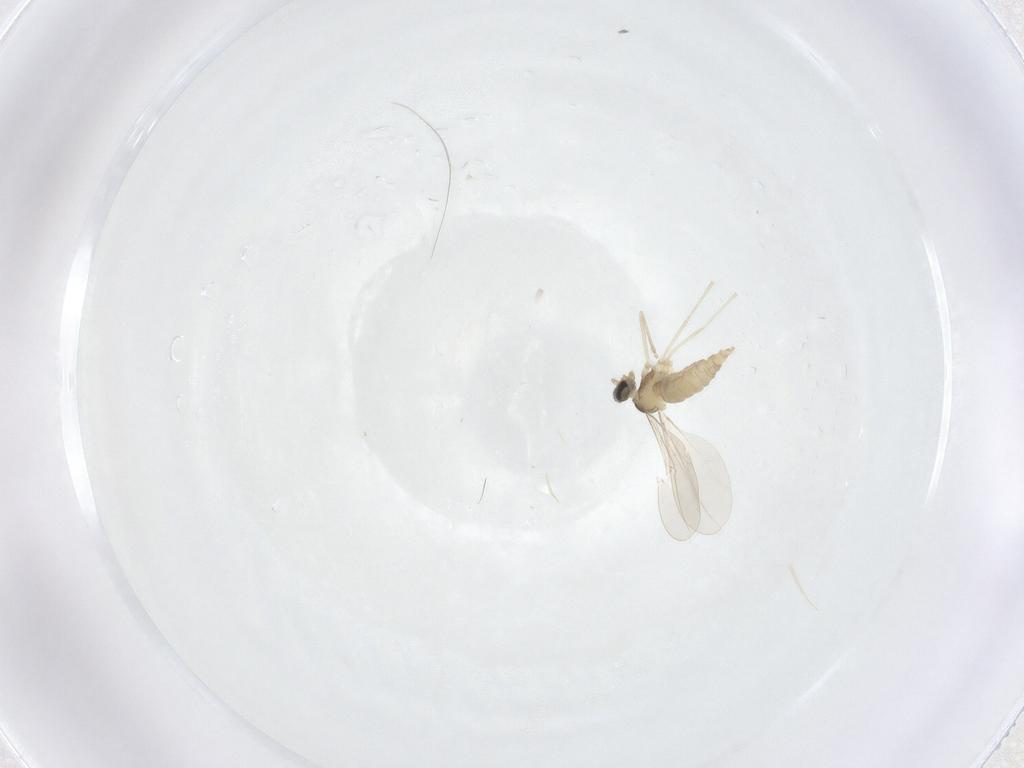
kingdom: Animalia
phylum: Arthropoda
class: Insecta
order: Diptera
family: Cecidomyiidae
